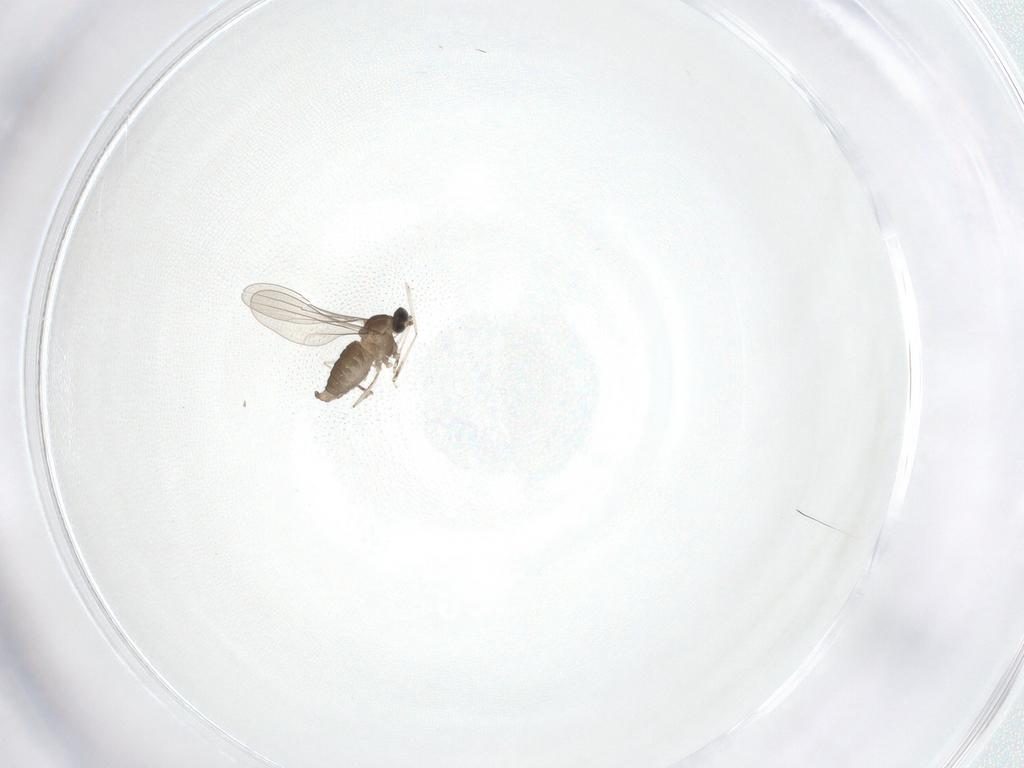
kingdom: Animalia
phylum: Arthropoda
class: Insecta
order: Diptera
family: Cecidomyiidae
